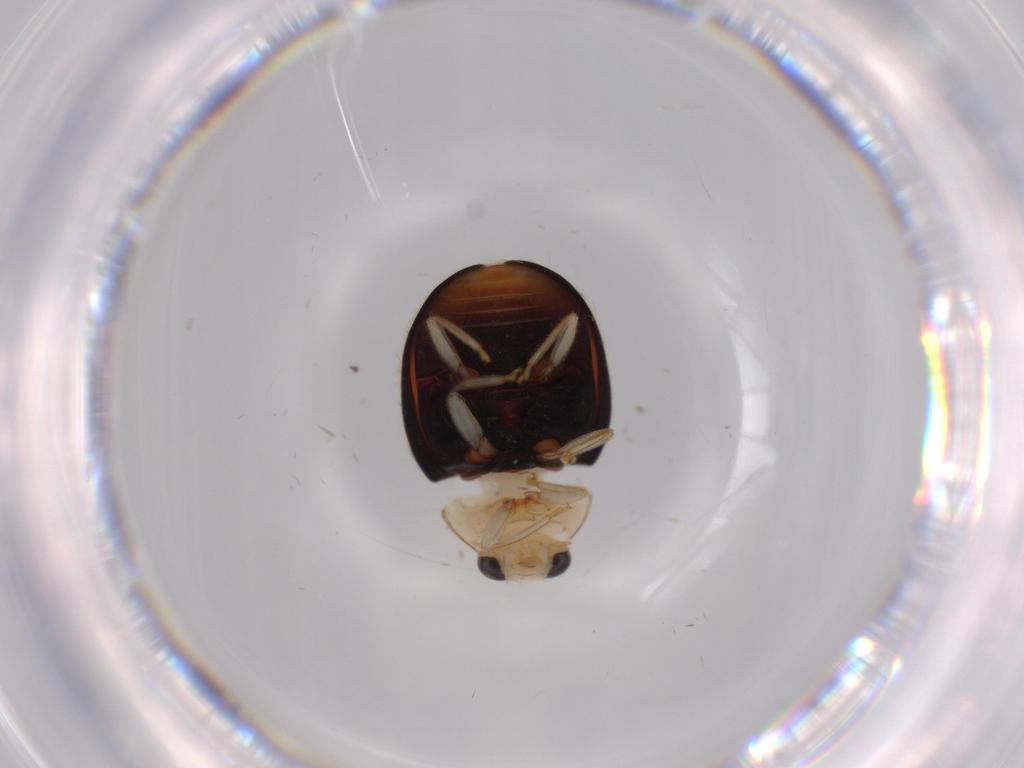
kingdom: Animalia
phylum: Arthropoda
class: Insecta
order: Coleoptera
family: Coccinellidae
